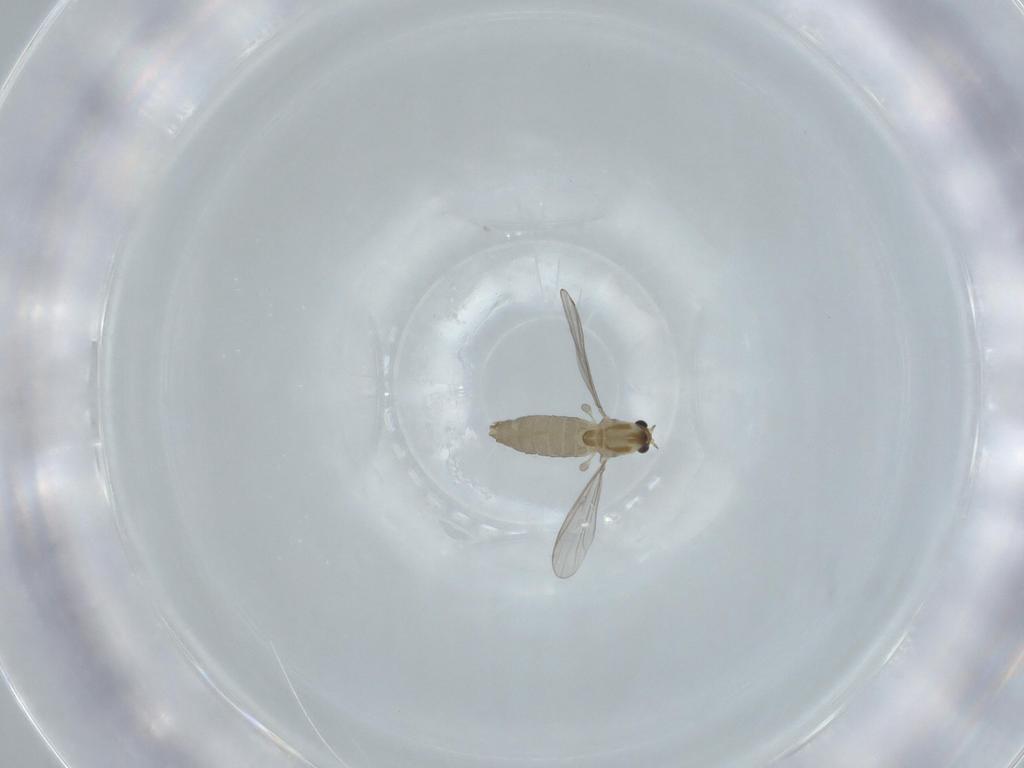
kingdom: Animalia
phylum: Arthropoda
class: Insecta
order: Diptera
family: Chironomidae
